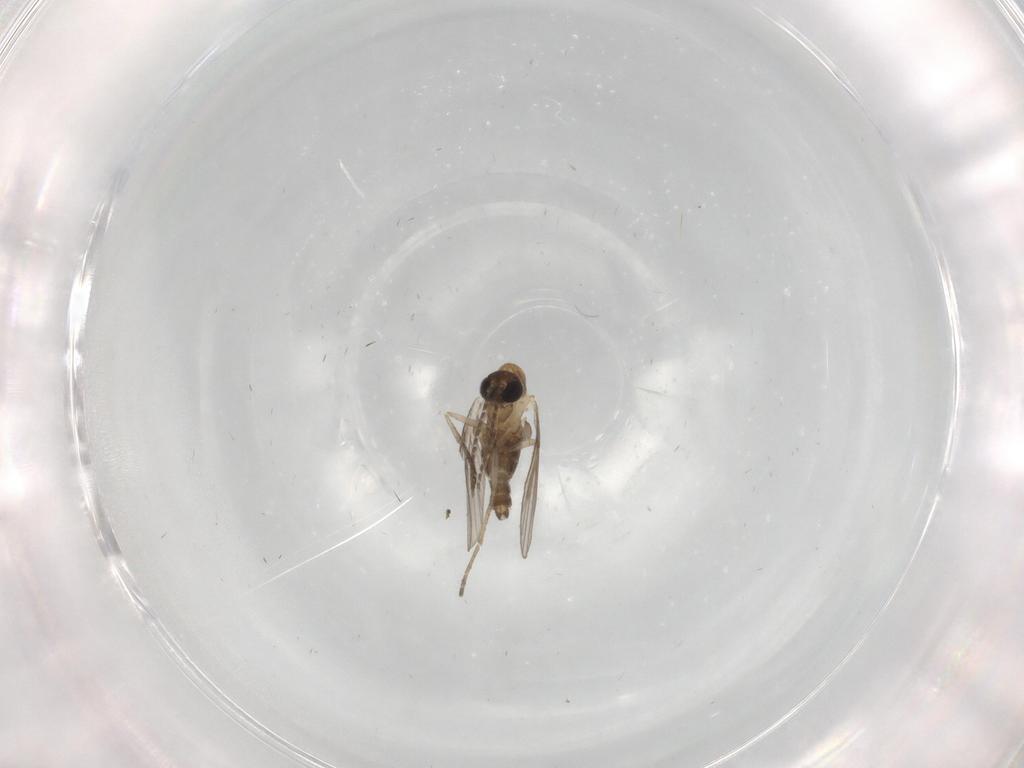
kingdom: Animalia
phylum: Arthropoda
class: Insecta
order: Diptera
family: Psychodidae
